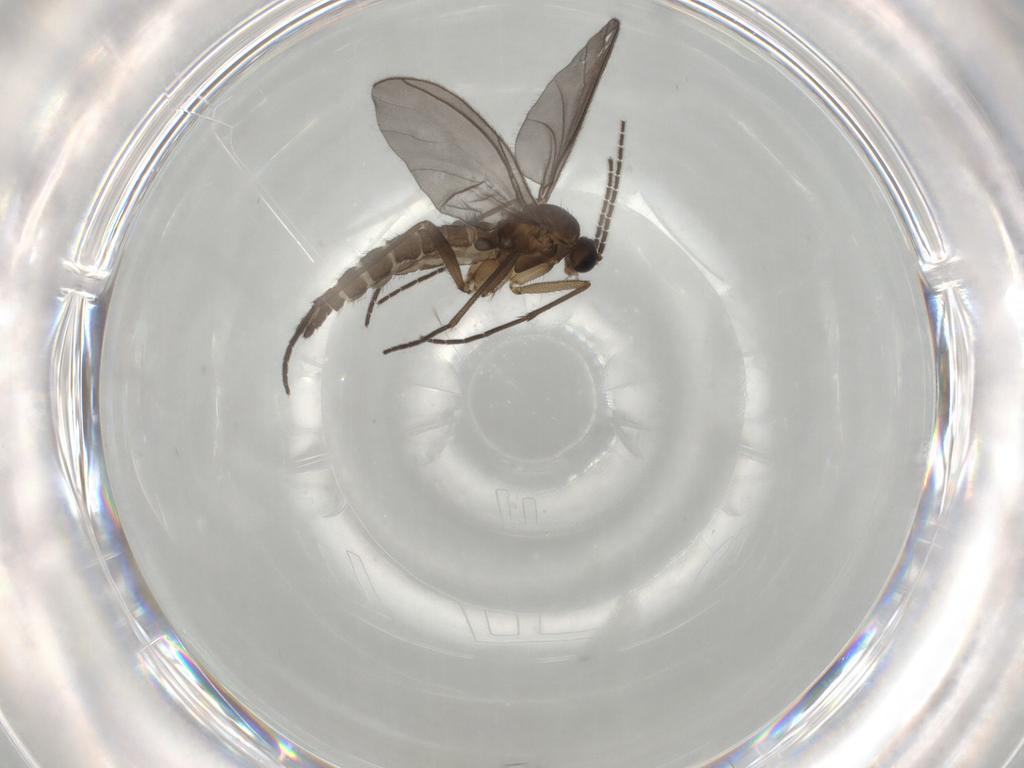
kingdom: Animalia
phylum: Arthropoda
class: Insecta
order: Diptera
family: Sciaridae
